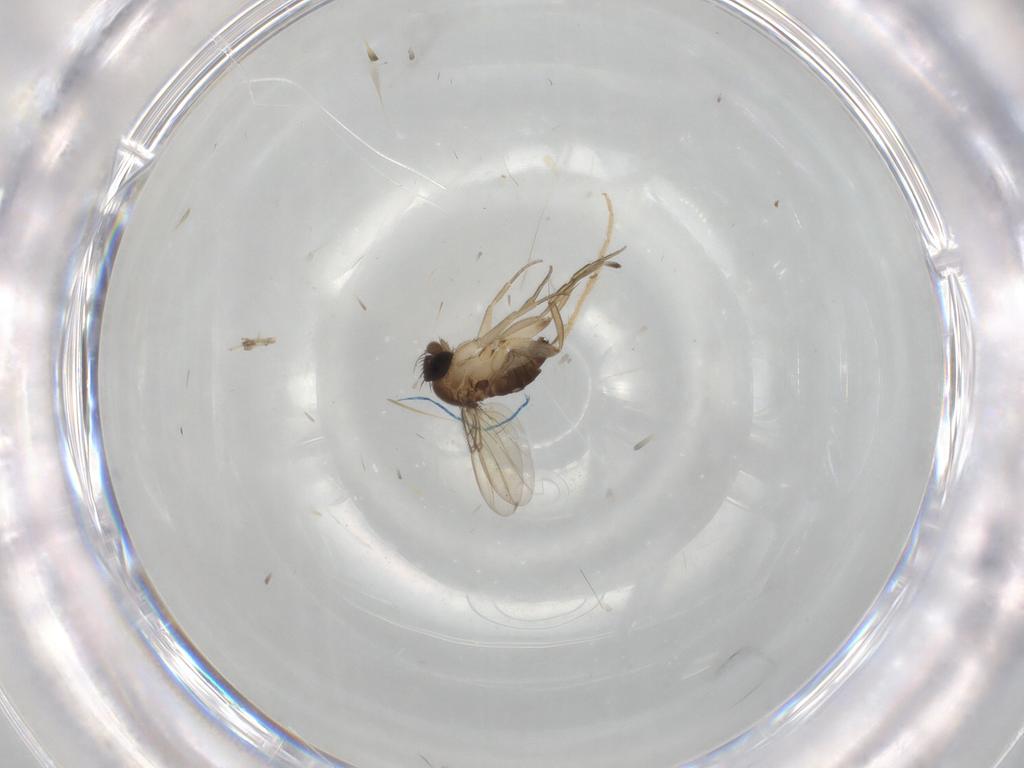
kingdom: Animalia
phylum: Arthropoda
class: Insecta
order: Diptera
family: Phoridae
